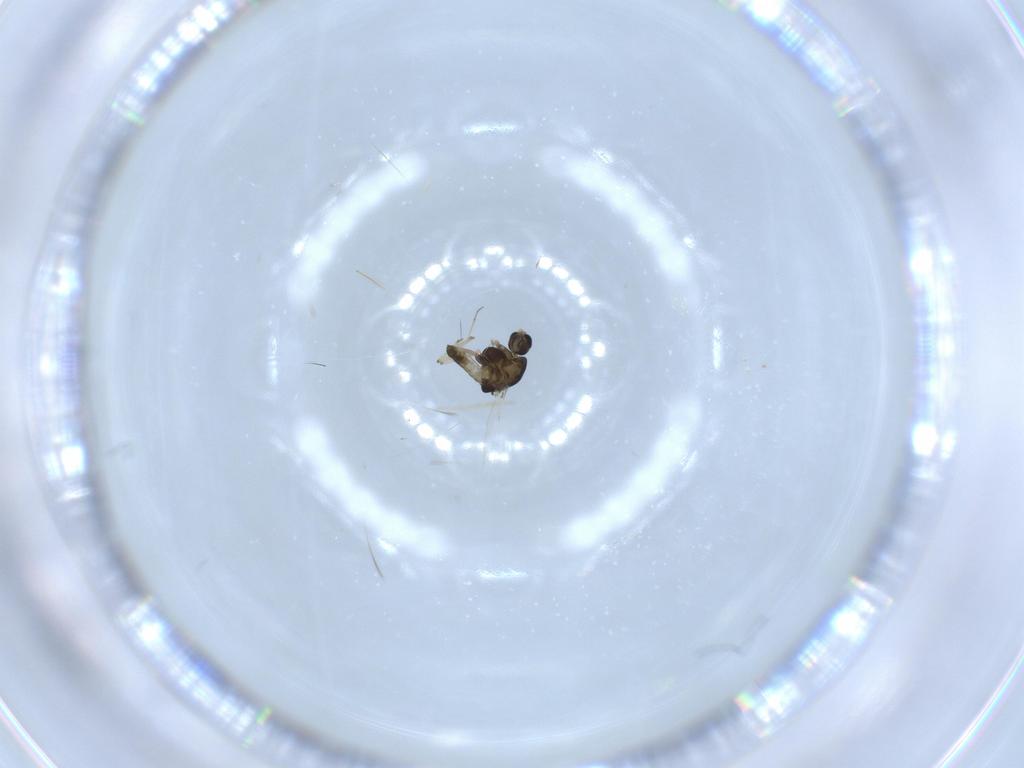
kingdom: Animalia
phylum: Arthropoda
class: Insecta
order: Diptera
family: Chironomidae
